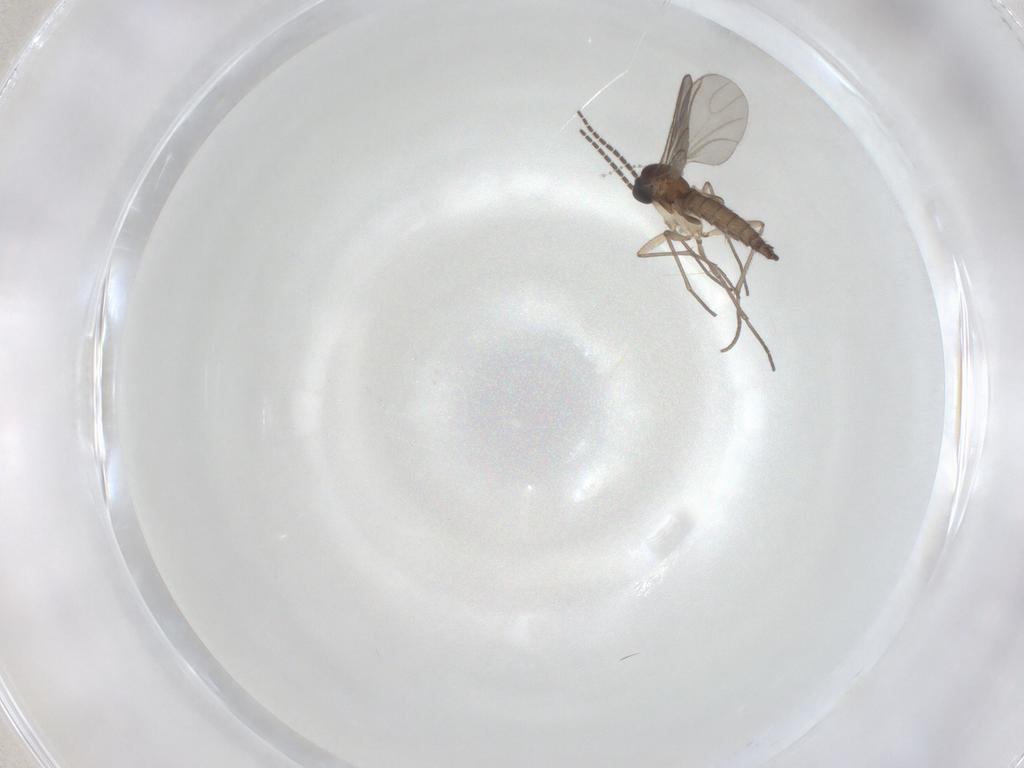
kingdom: Animalia
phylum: Arthropoda
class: Insecta
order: Diptera
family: Sciaridae
